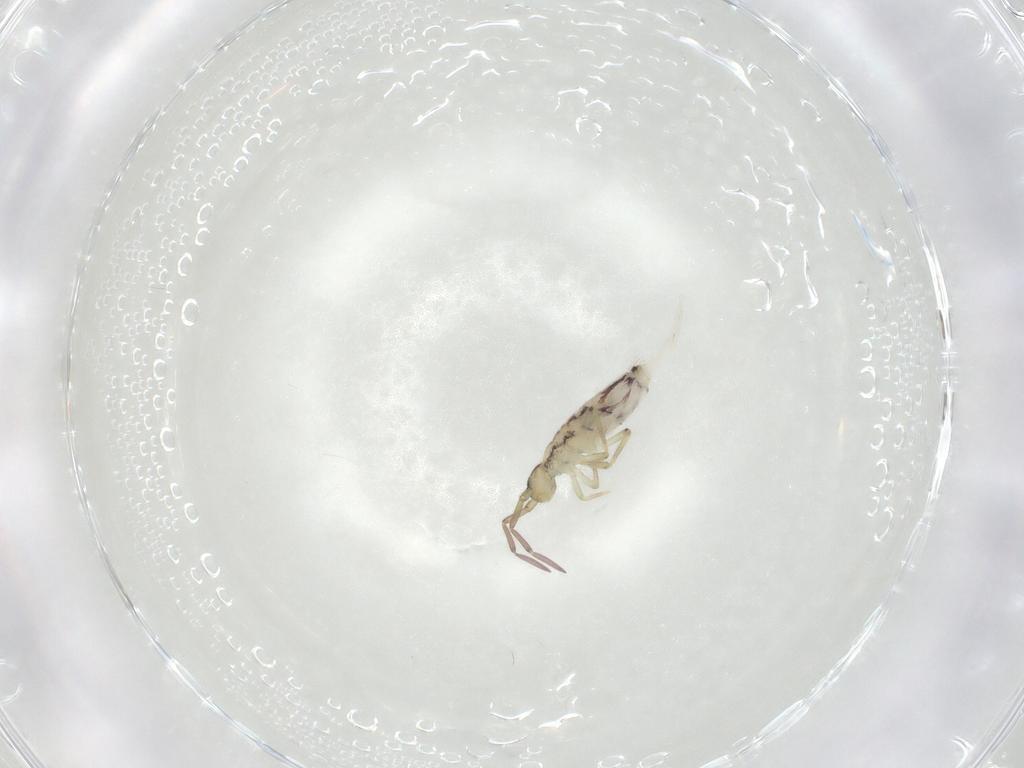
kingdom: Animalia
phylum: Arthropoda
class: Collembola
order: Entomobryomorpha
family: Entomobryidae
